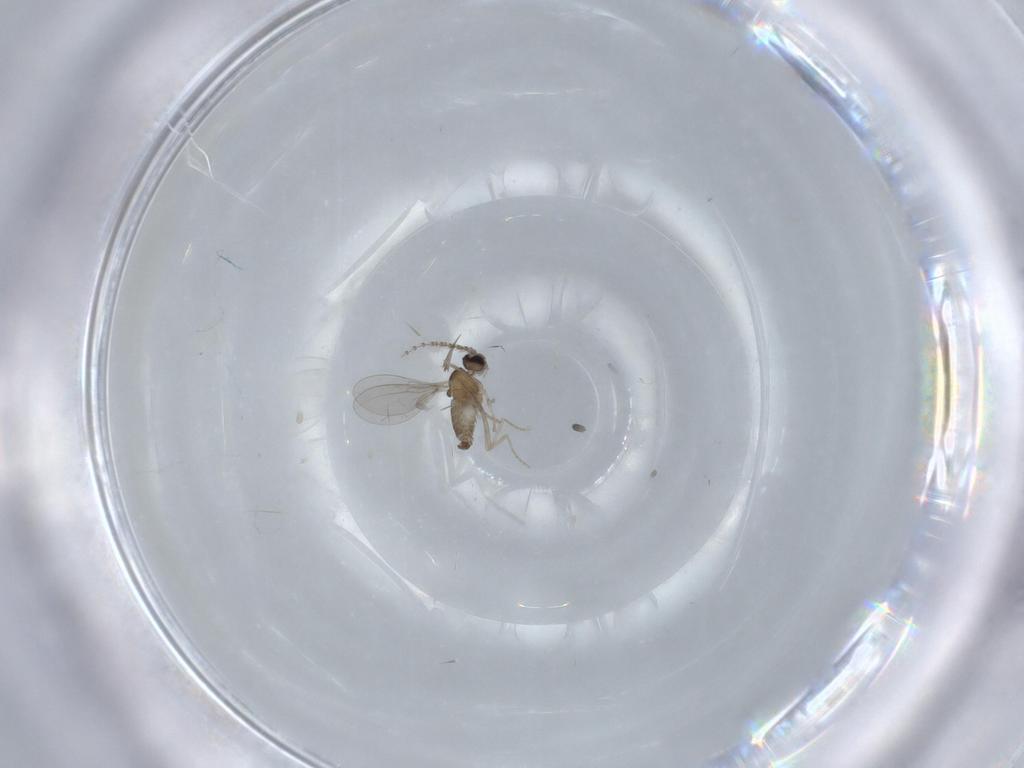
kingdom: Animalia
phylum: Arthropoda
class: Insecta
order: Diptera
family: Cecidomyiidae
